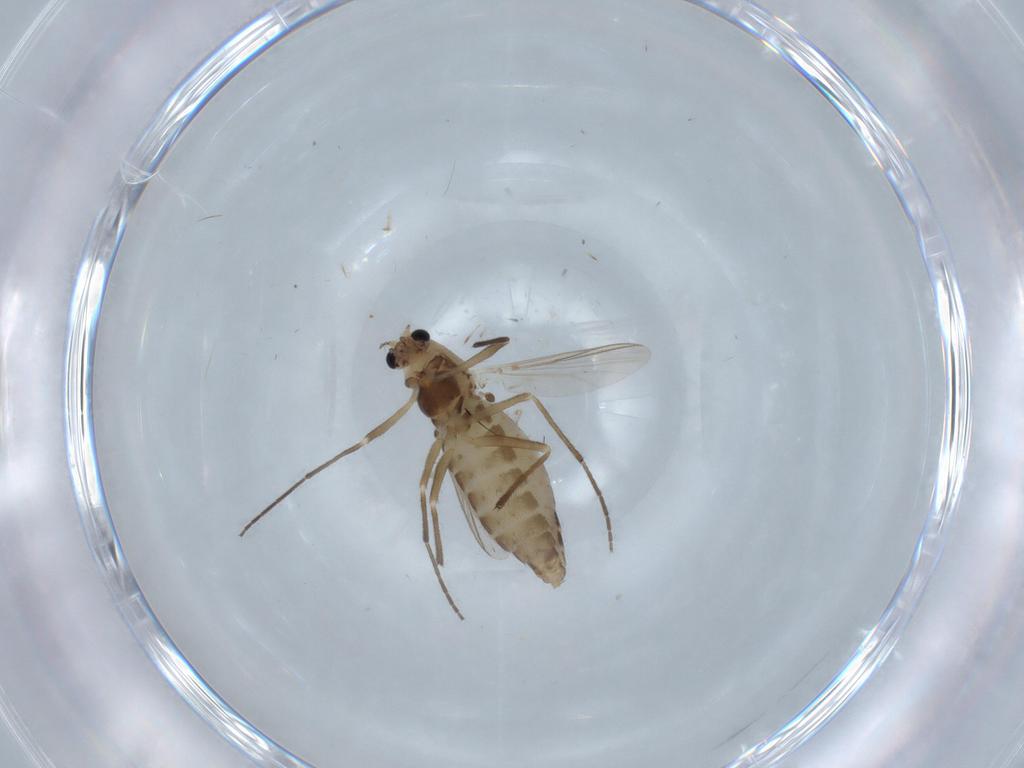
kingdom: Animalia
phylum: Arthropoda
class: Insecta
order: Diptera
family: Chironomidae
